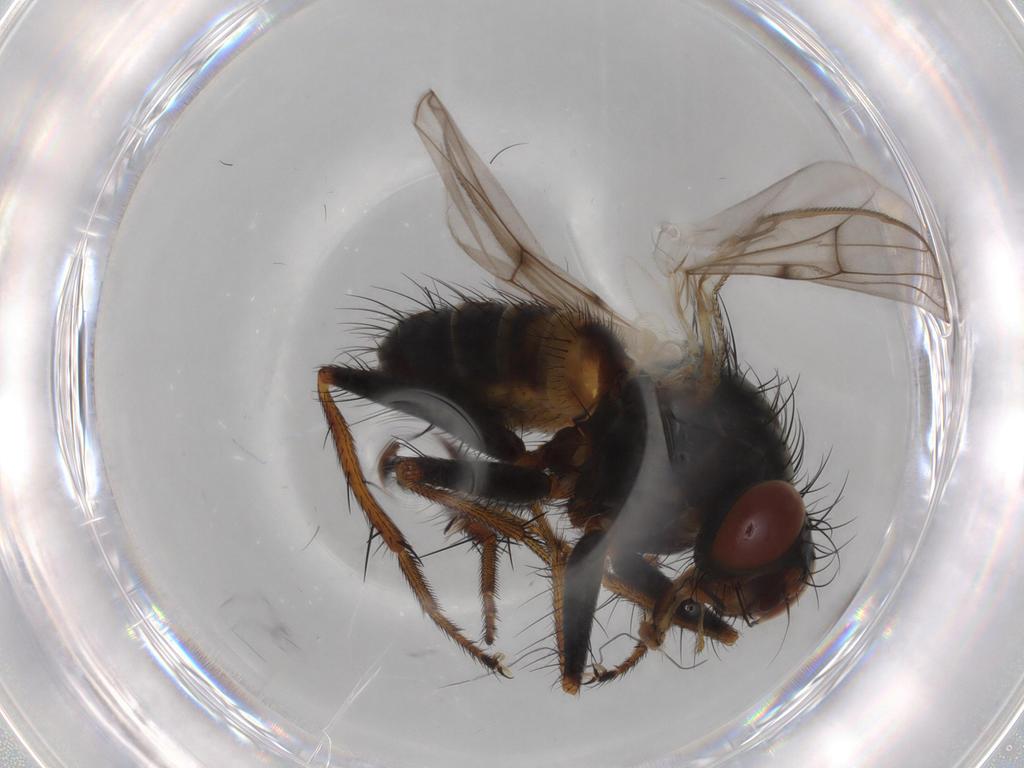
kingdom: Animalia
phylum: Arthropoda
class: Insecta
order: Diptera
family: Muscidae
